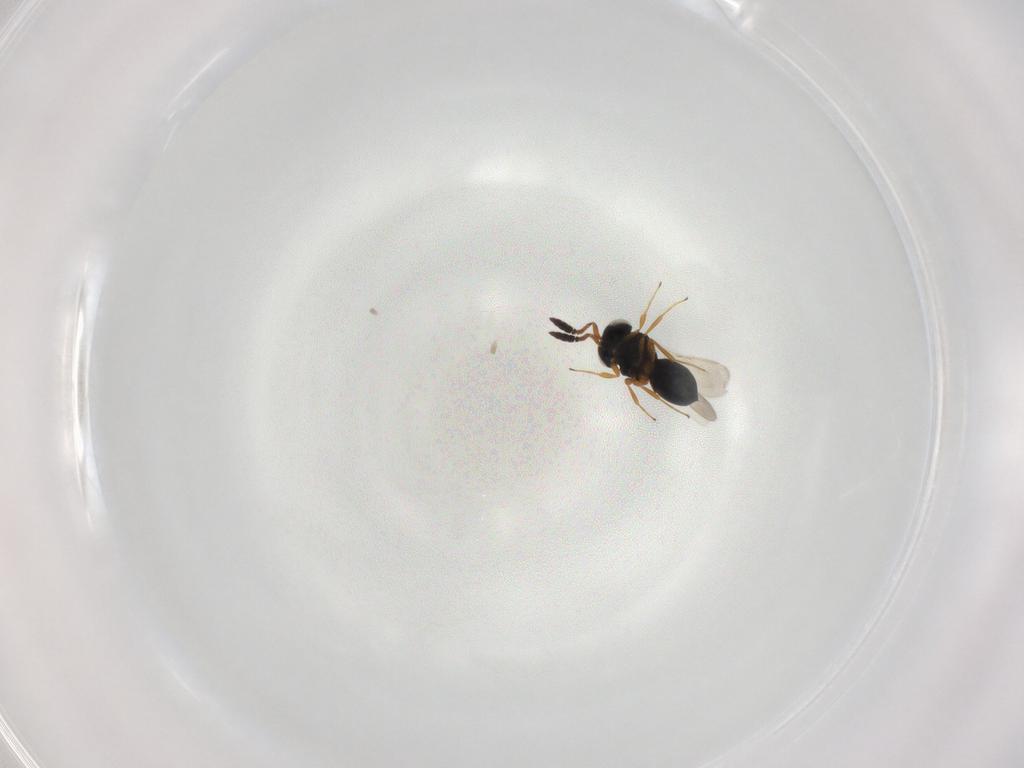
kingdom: Animalia
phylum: Arthropoda
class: Insecta
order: Hymenoptera
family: Scelionidae
